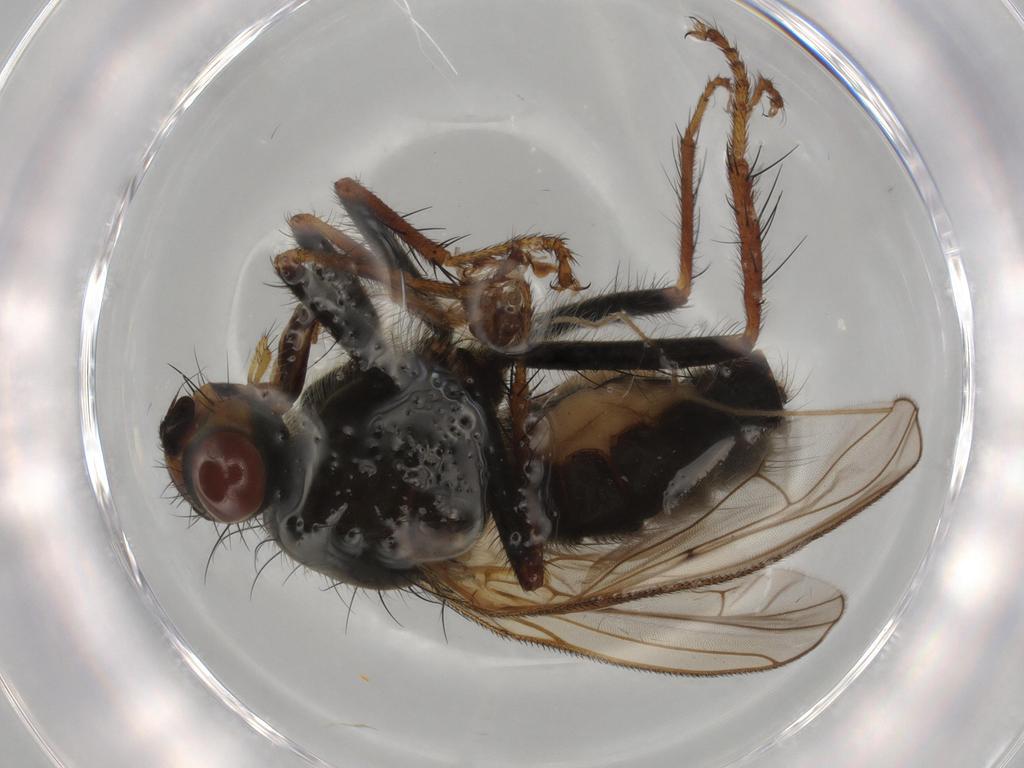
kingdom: Animalia
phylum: Arthropoda
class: Insecta
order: Diptera
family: Scathophagidae
